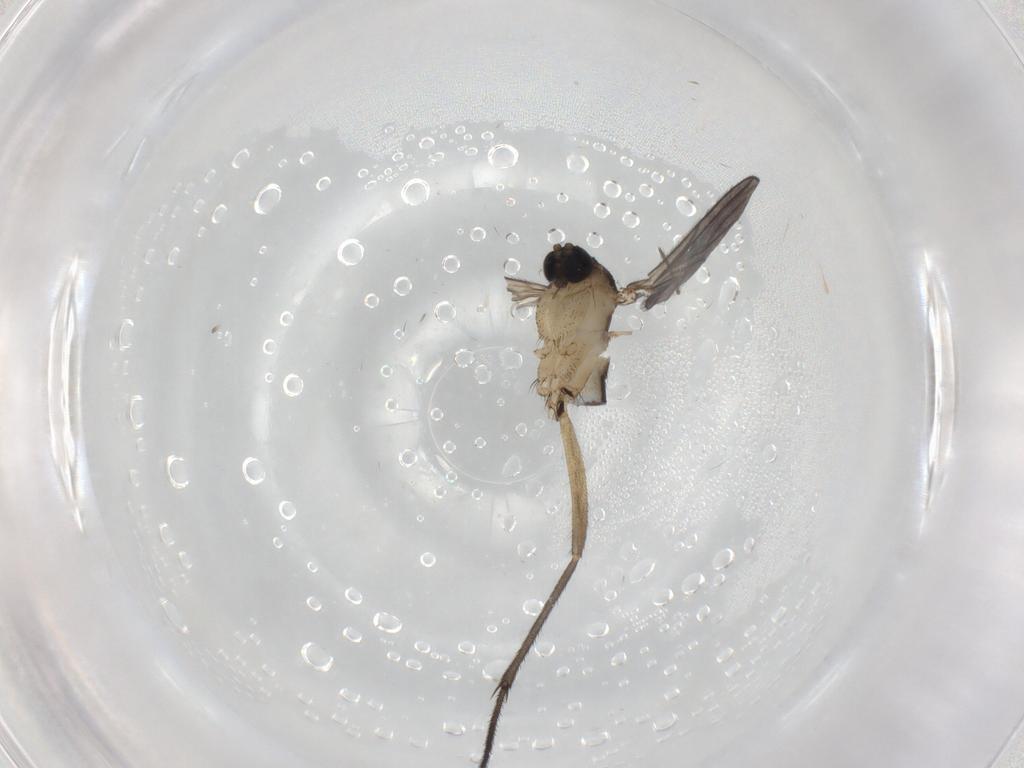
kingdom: Animalia
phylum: Arthropoda
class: Insecta
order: Diptera
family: Sciaridae
